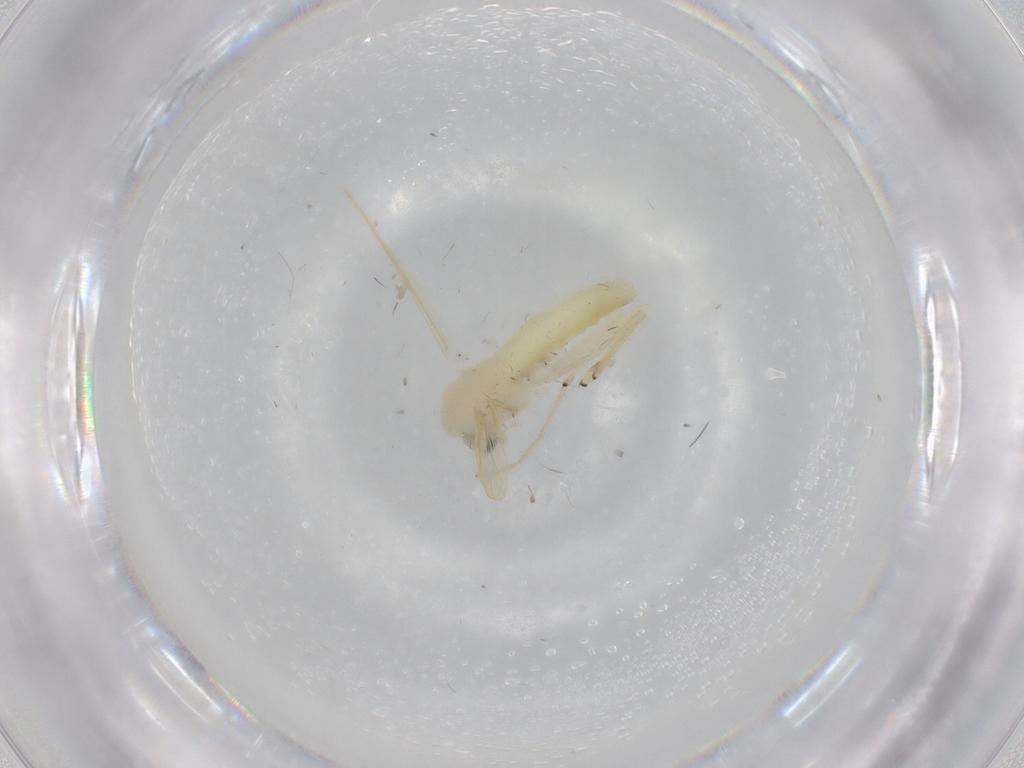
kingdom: Animalia
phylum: Arthropoda
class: Insecta
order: Diptera
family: Chironomidae
